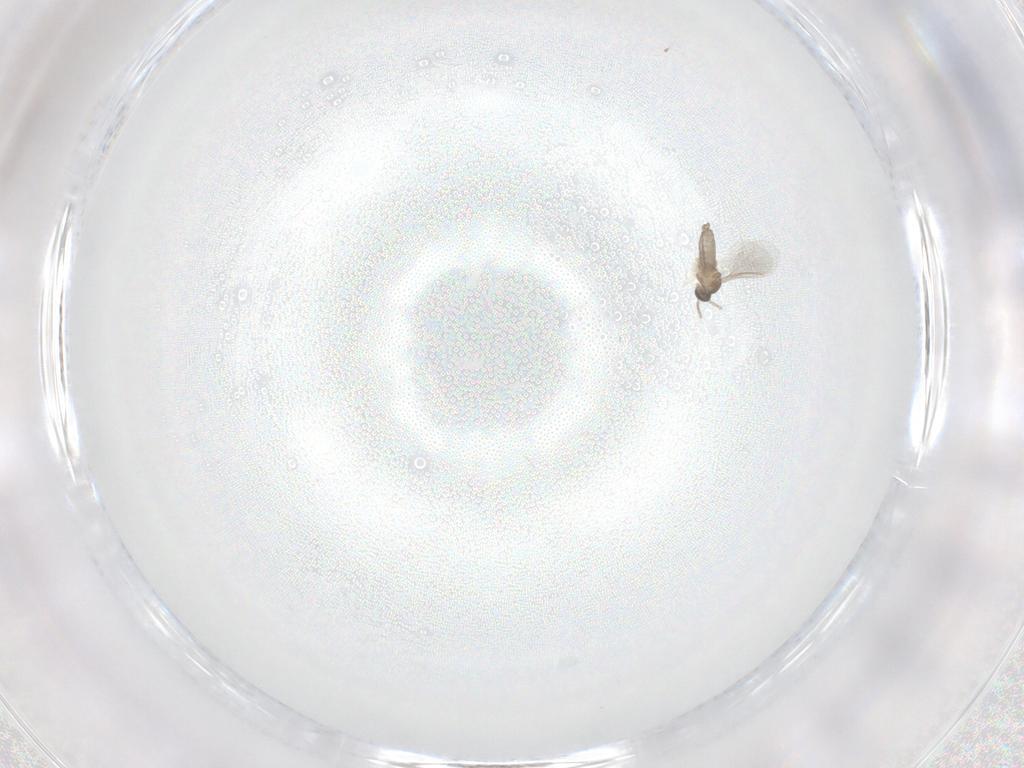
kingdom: Animalia
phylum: Arthropoda
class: Insecta
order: Diptera
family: Cecidomyiidae
